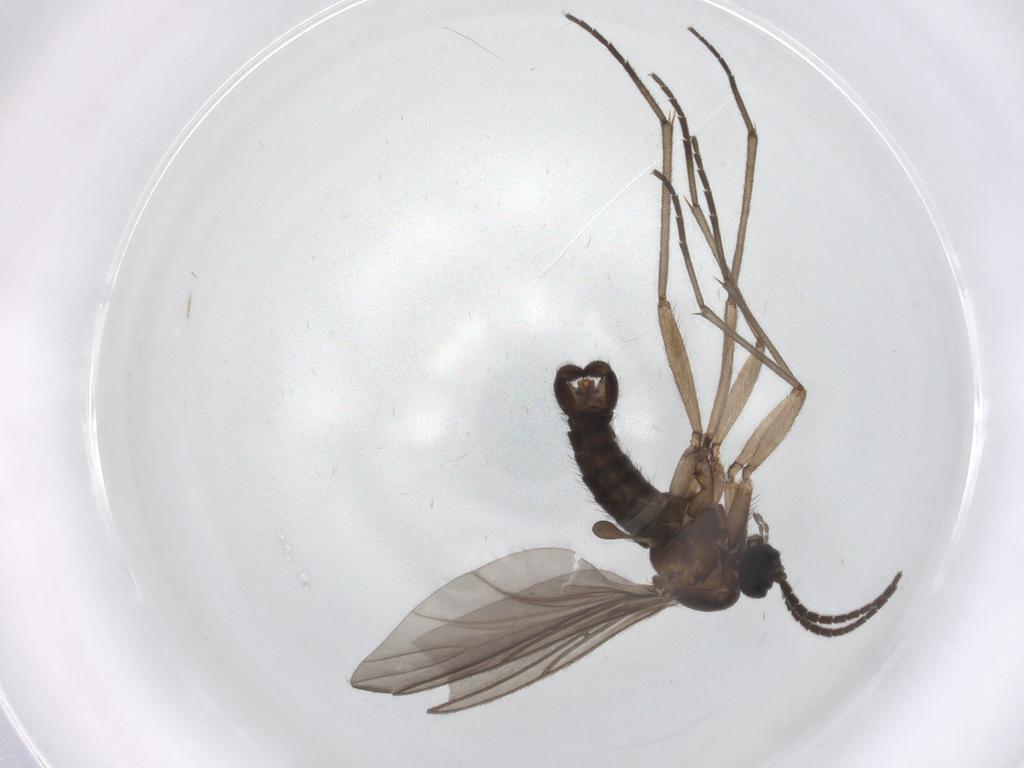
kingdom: Animalia
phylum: Arthropoda
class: Insecta
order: Diptera
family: Sciaridae
